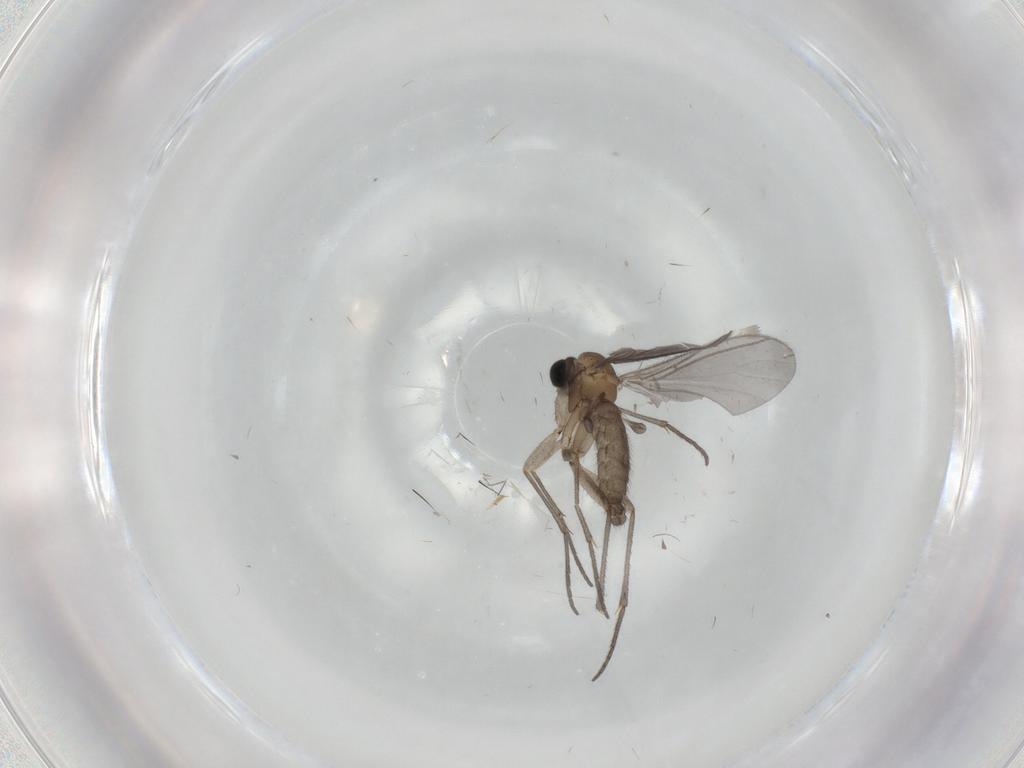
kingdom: Animalia
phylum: Arthropoda
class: Insecta
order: Diptera
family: Sciaridae
